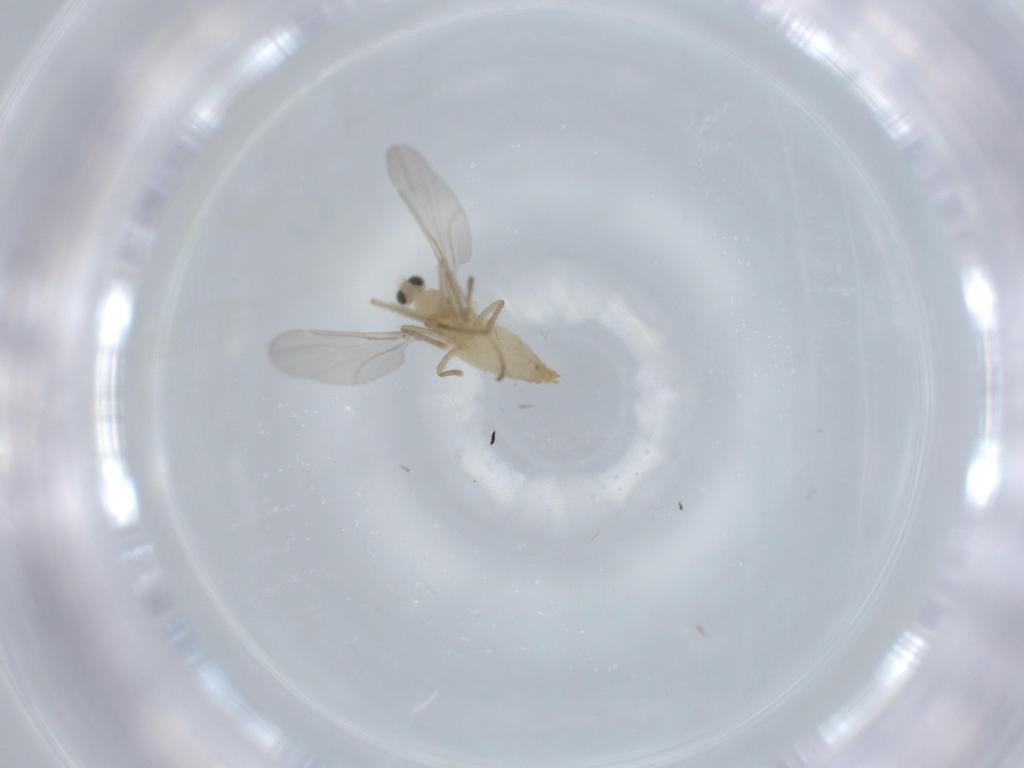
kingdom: Animalia
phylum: Arthropoda
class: Insecta
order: Diptera
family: Cecidomyiidae
